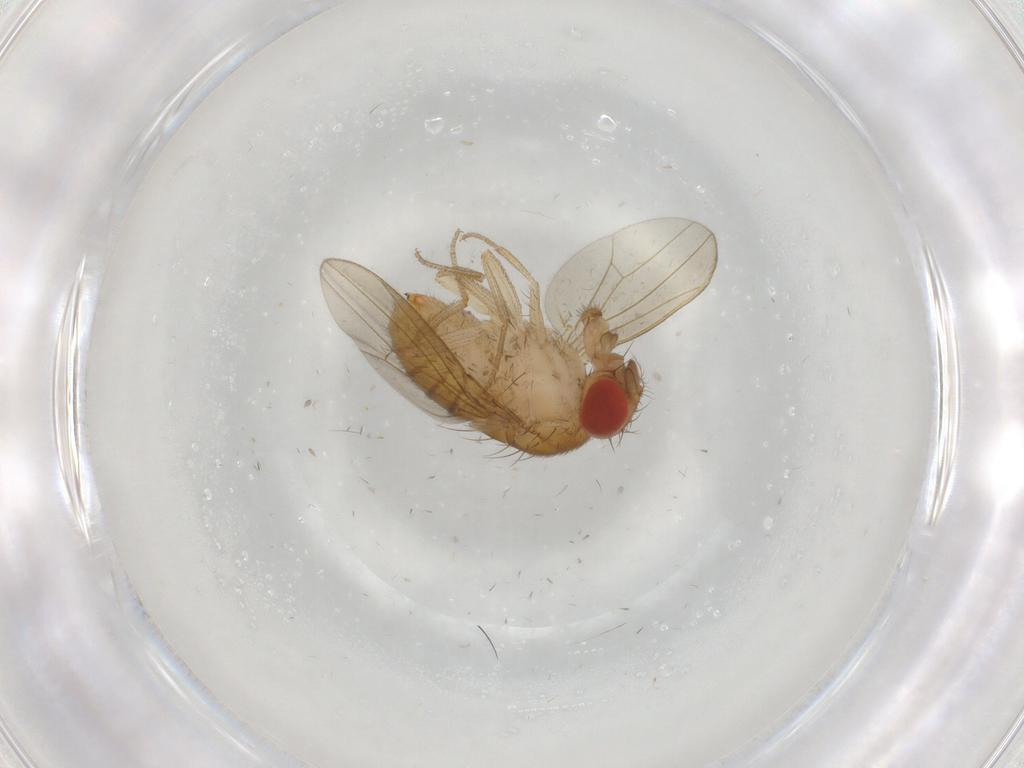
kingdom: Animalia
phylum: Arthropoda
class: Insecta
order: Diptera
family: Drosophilidae
